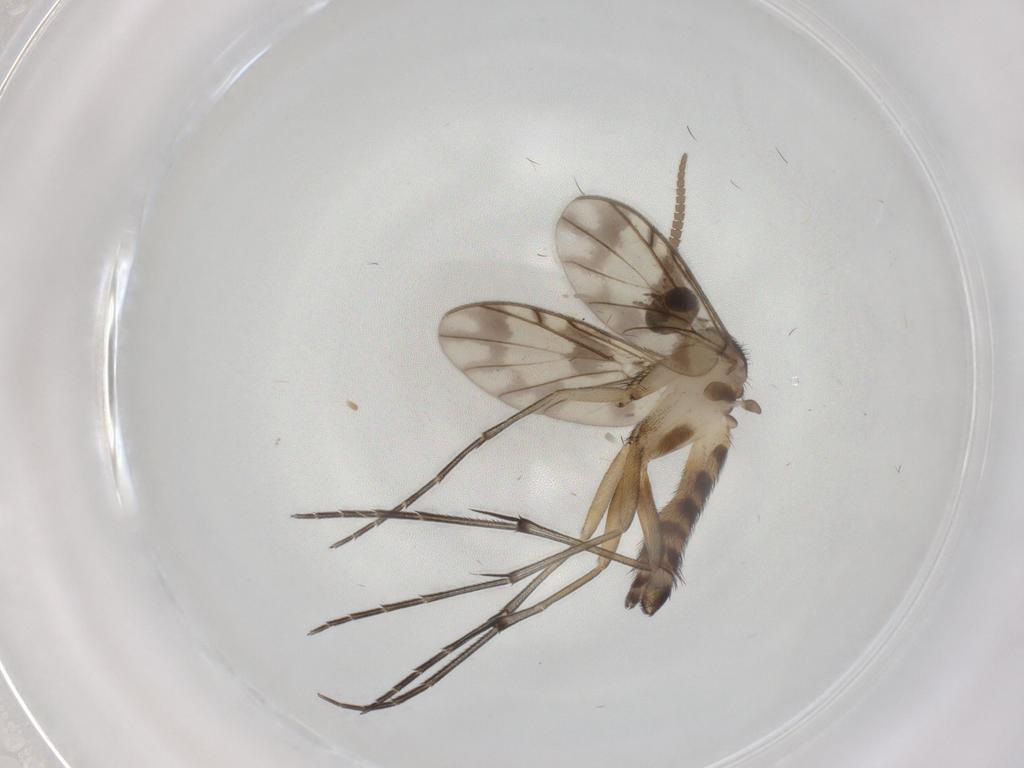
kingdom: Animalia
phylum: Arthropoda
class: Insecta
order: Diptera
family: Sciaridae
